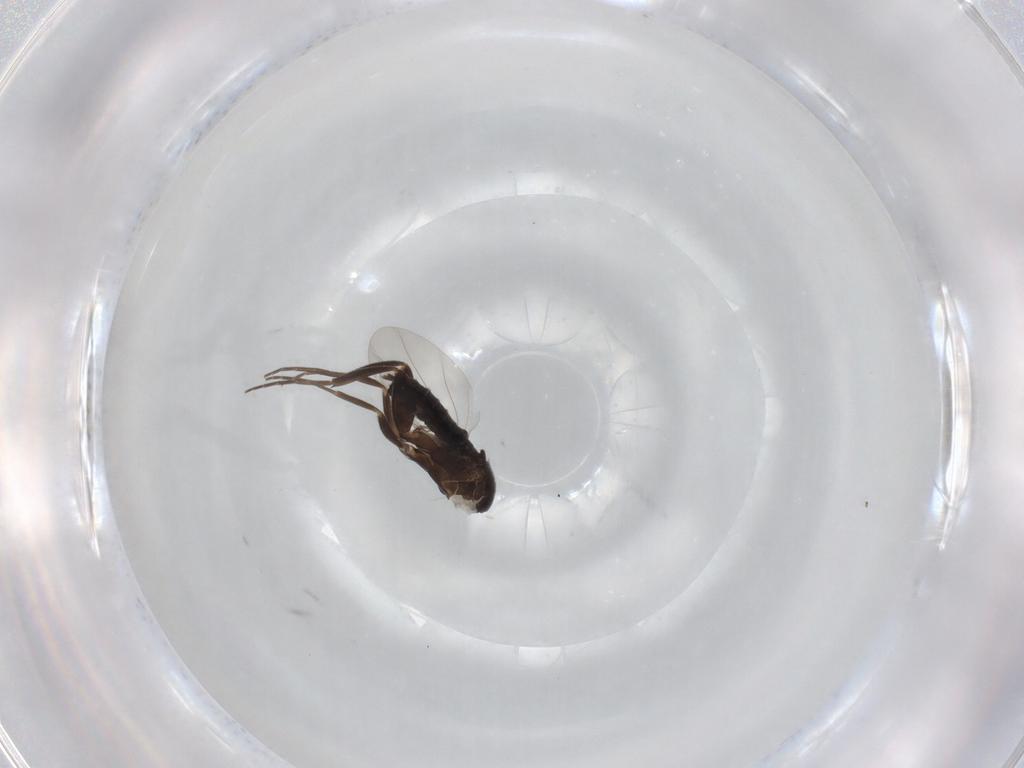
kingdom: Animalia
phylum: Arthropoda
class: Insecta
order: Diptera
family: Phoridae
